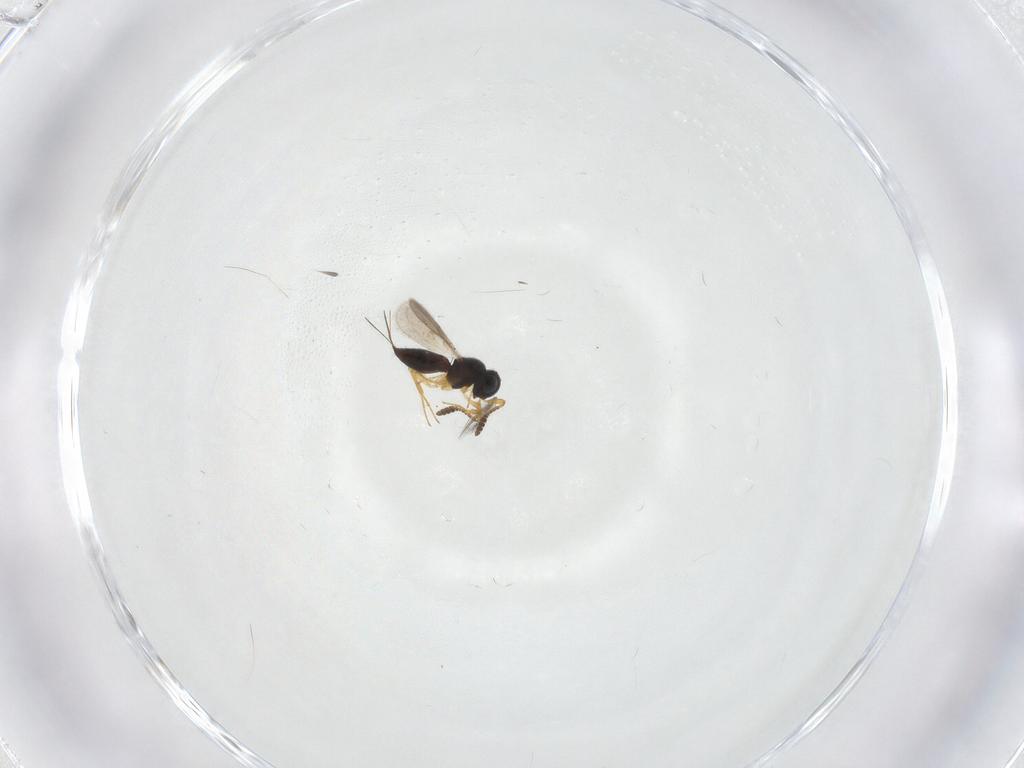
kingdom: Animalia
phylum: Arthropoda
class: Insecta
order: Hymenoptera
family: Scelionidae
